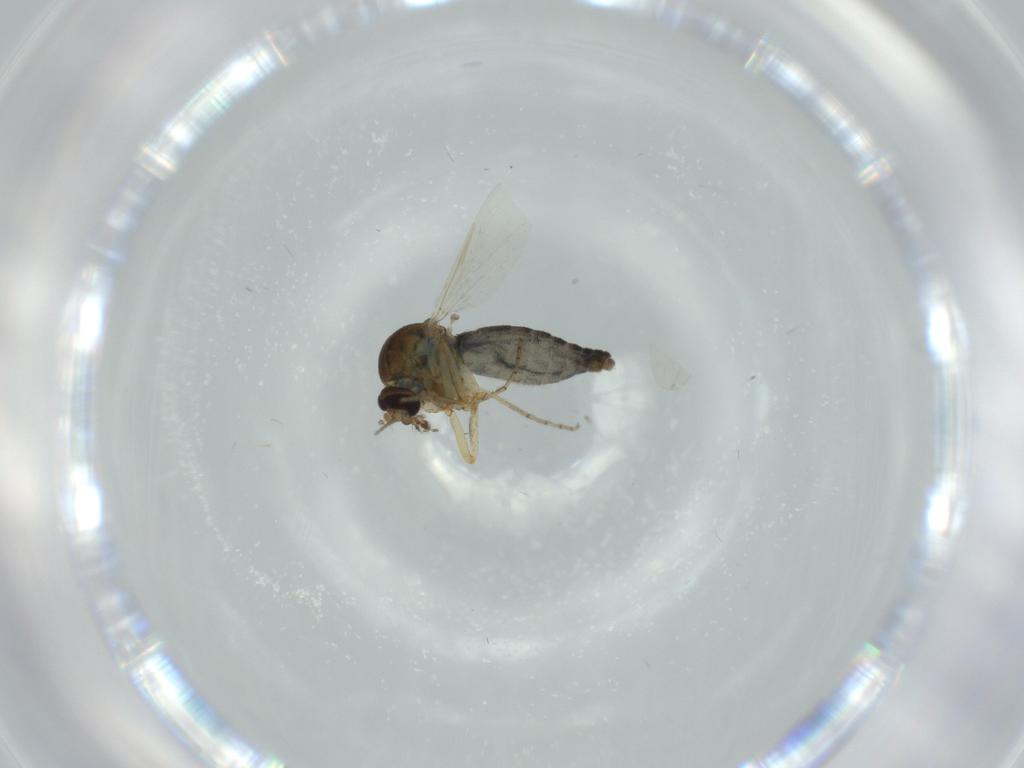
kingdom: Animalia
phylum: Arthropoda
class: Insecta
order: Diptera
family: Ceratopogonidae
